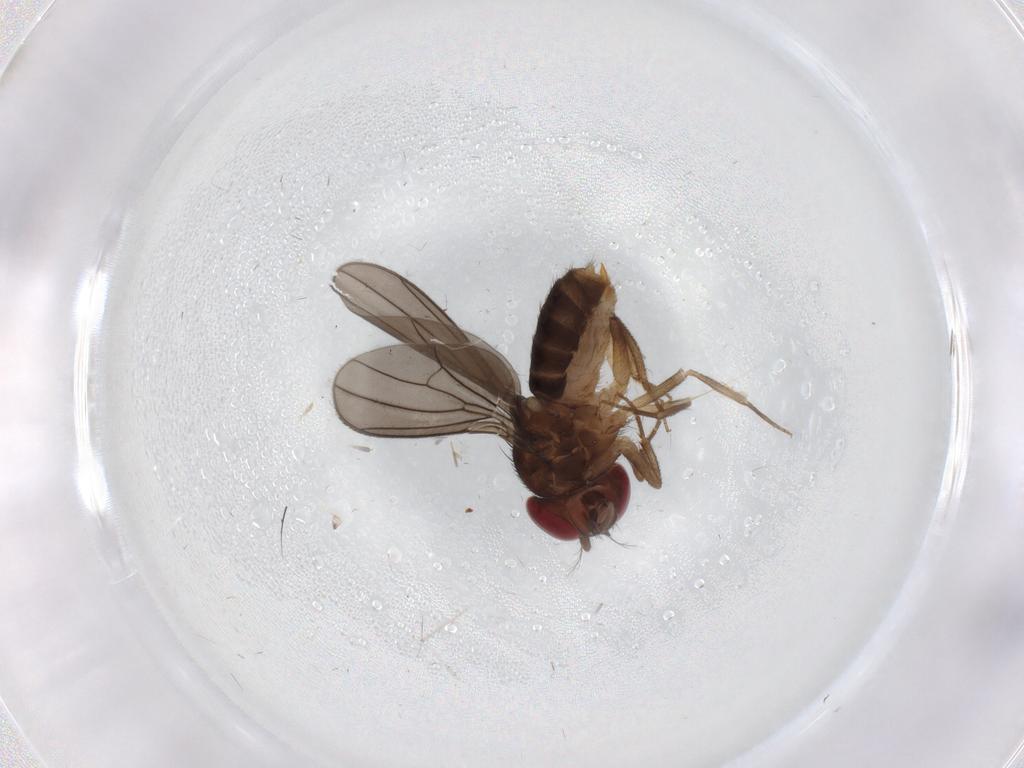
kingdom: Animalia
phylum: Arthropoda
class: Insecta
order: Diptera
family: Drosophilidae
